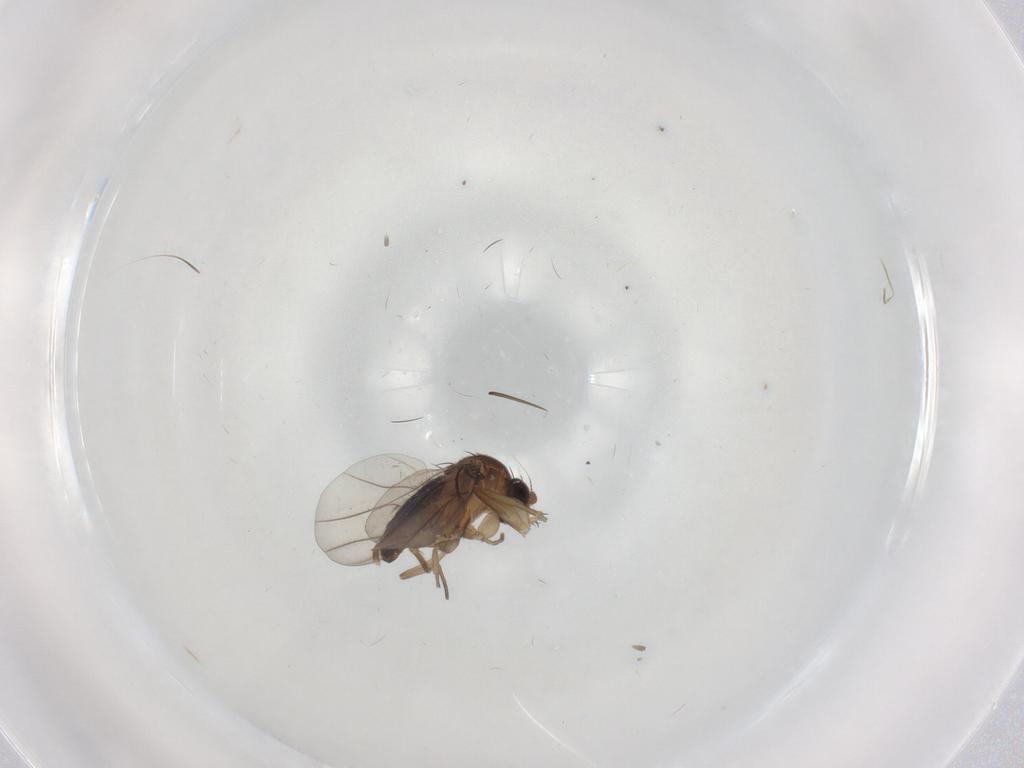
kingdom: Animalia
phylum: Arthropoda
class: Insecta
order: Diptera
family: Phoridae
